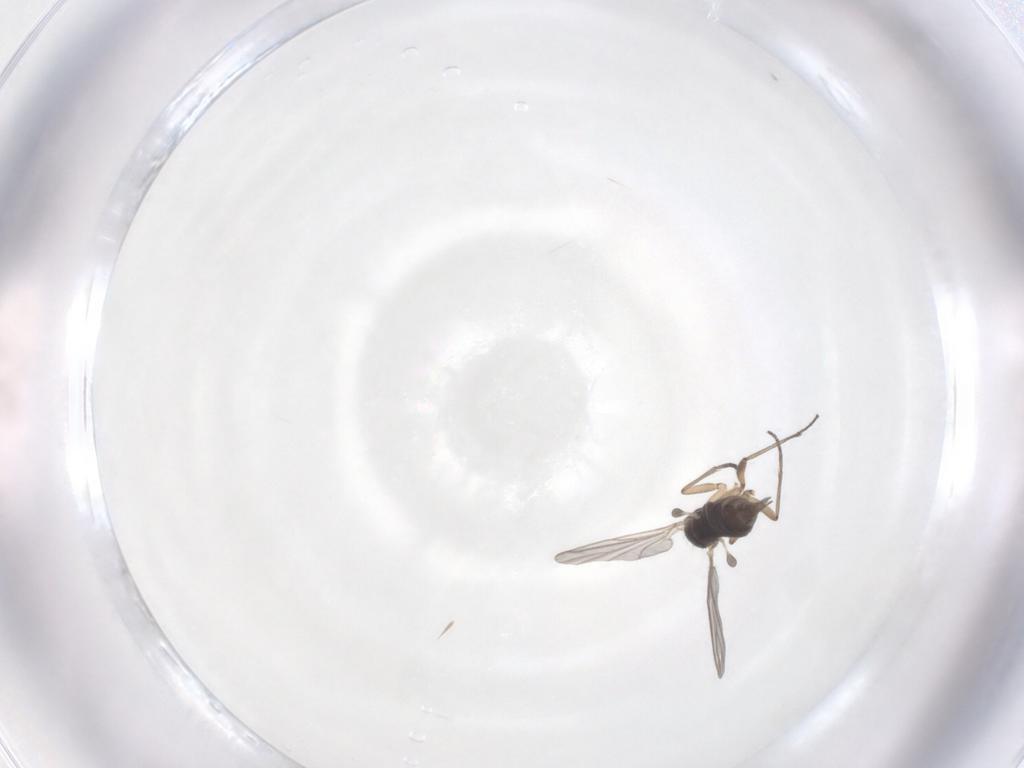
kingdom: Animalia
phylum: Arthropoda
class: Insecta
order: Diptera
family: Sciaridae
